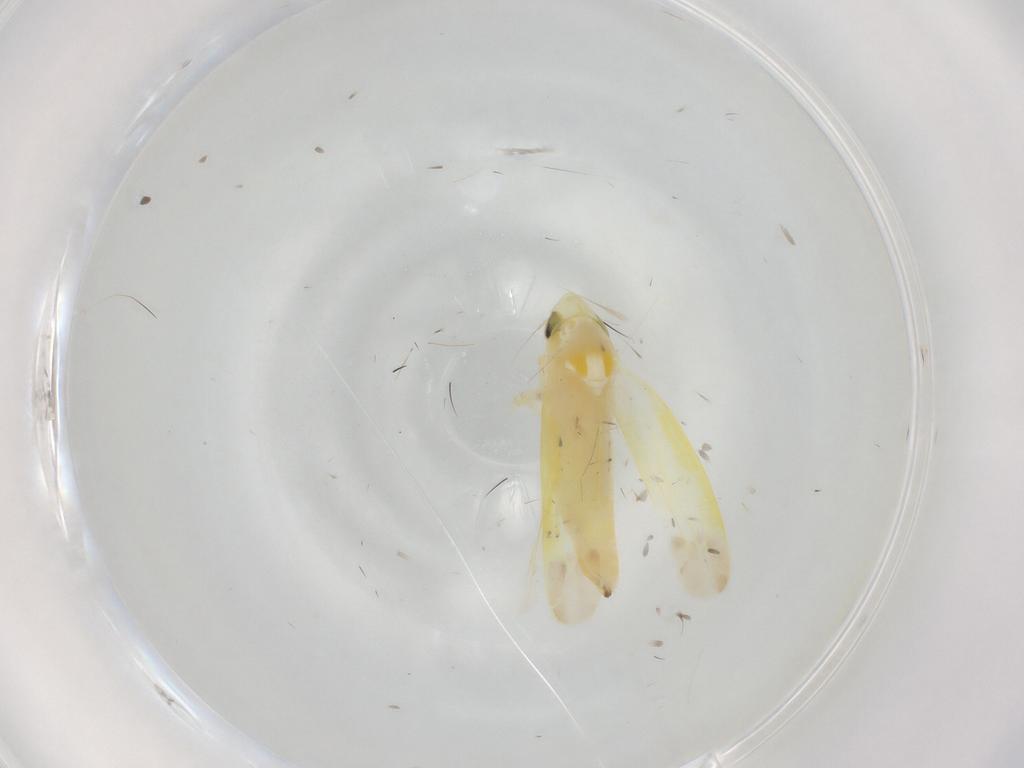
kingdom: Animalia
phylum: Arthropoda
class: Insecta
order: Hemiptera
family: Cicadellidae
